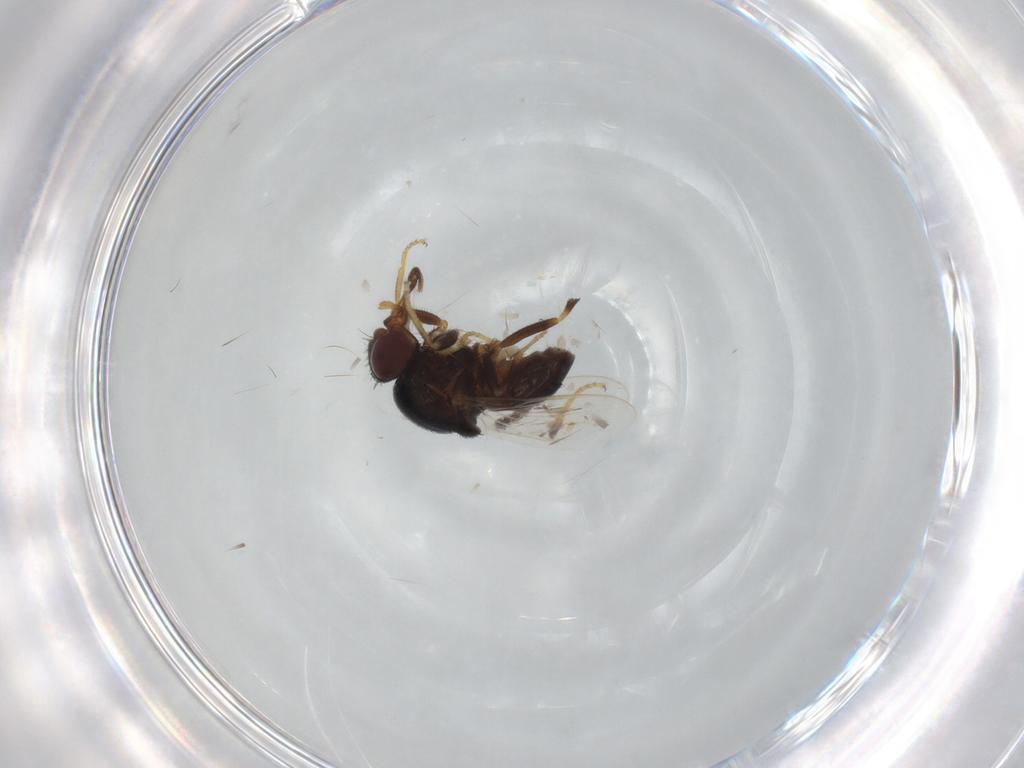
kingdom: Animalia
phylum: Arthropoda
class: Insecta
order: Diptera
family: Chloropidae
